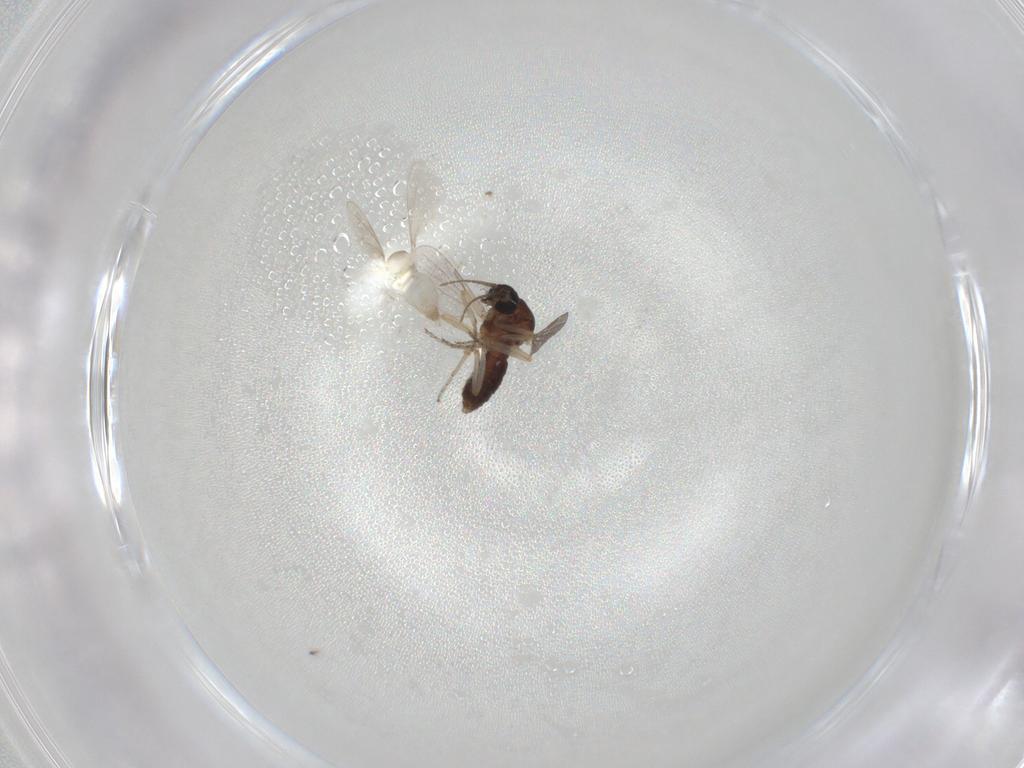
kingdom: Animalia
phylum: Arthropoda
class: Insecta
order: Diptera
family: Ceratopogonidae
